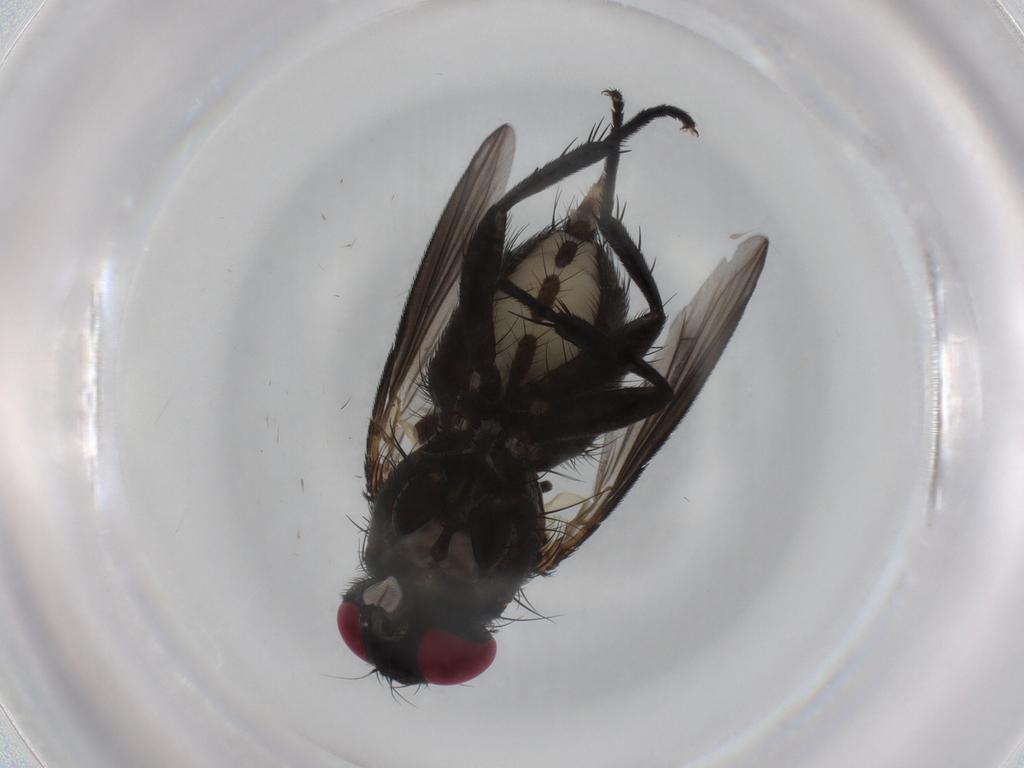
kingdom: Animalia
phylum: Arthropoda
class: Insecta
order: Diptera
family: Calliphoridae
